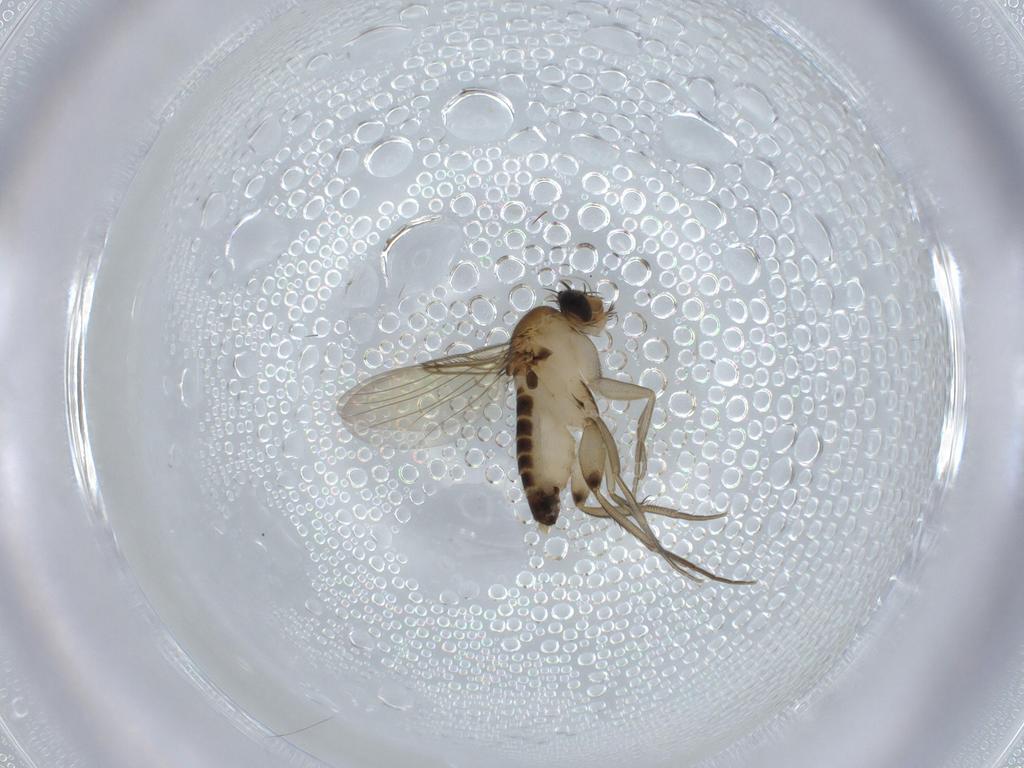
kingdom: Animalia
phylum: Arthropoda
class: Insecta
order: Diptera
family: Phoridae
